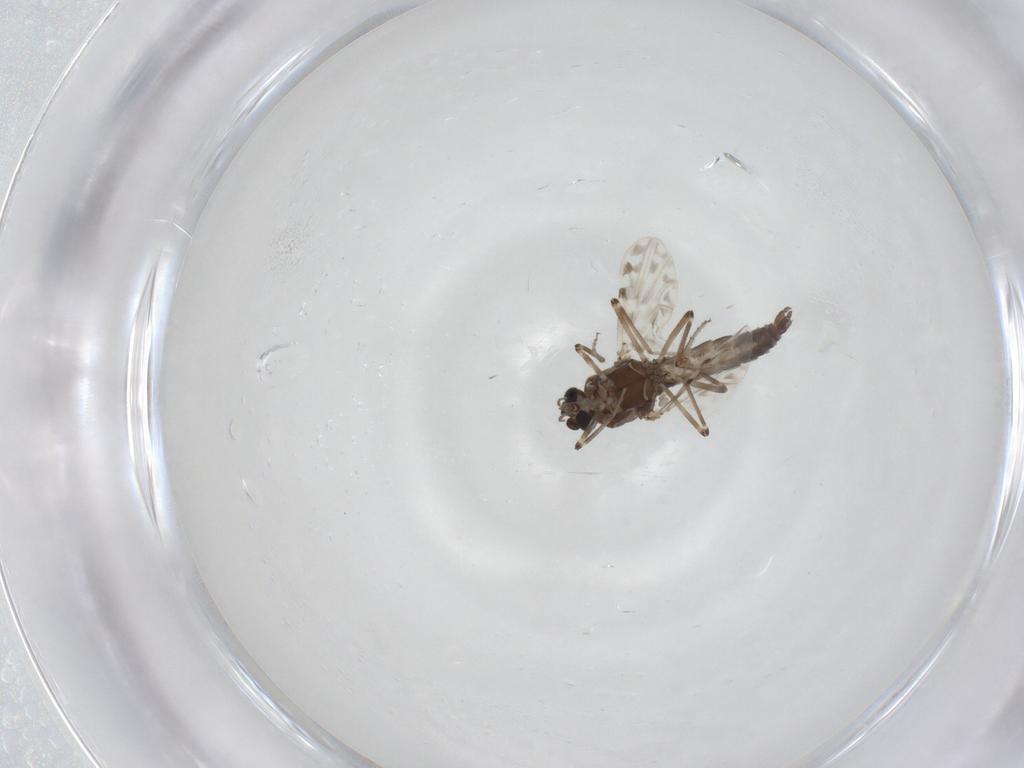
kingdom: Animalia
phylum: Arthropoda
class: Insecta
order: Diptera
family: Ceratopogonidae
